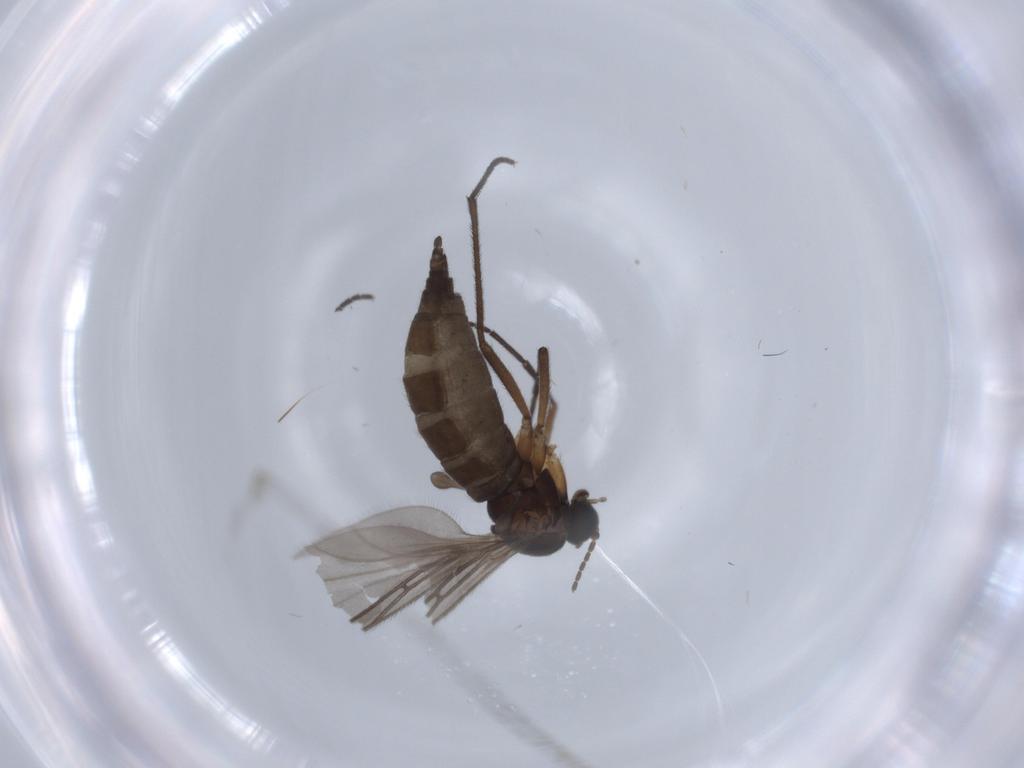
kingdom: Animalia
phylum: Arthropoda
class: Insecta
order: Diptera
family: Sciaridae
